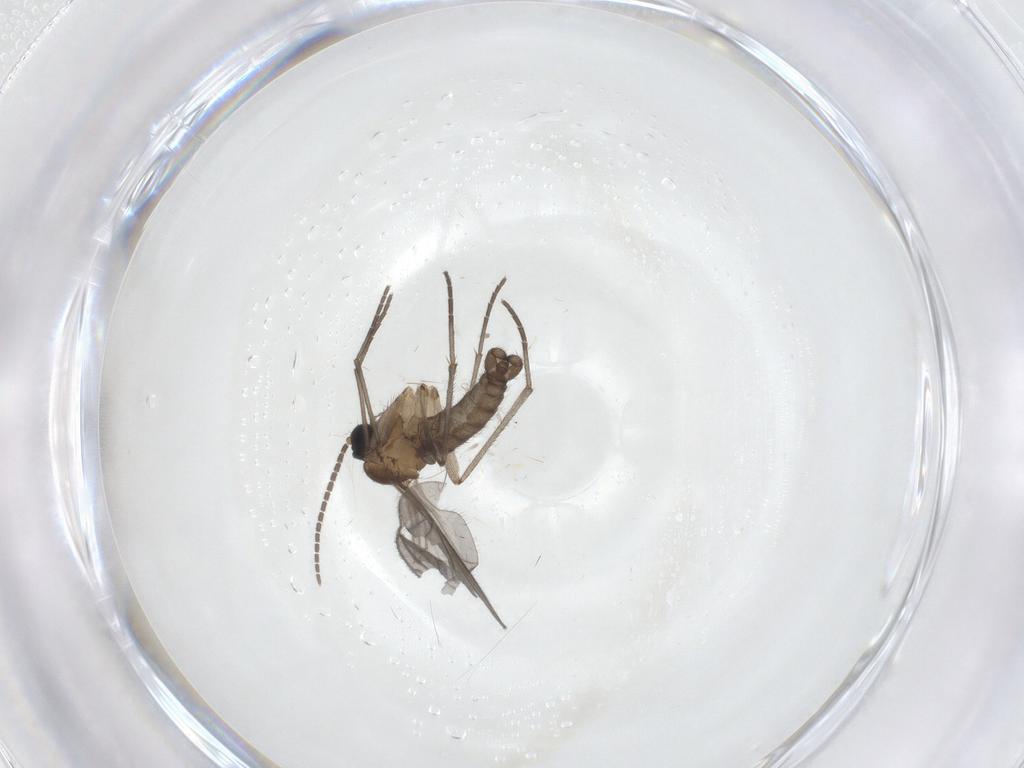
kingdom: Animalia
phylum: Arthropoda
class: Insecta
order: Diptera
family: Sciaridae
